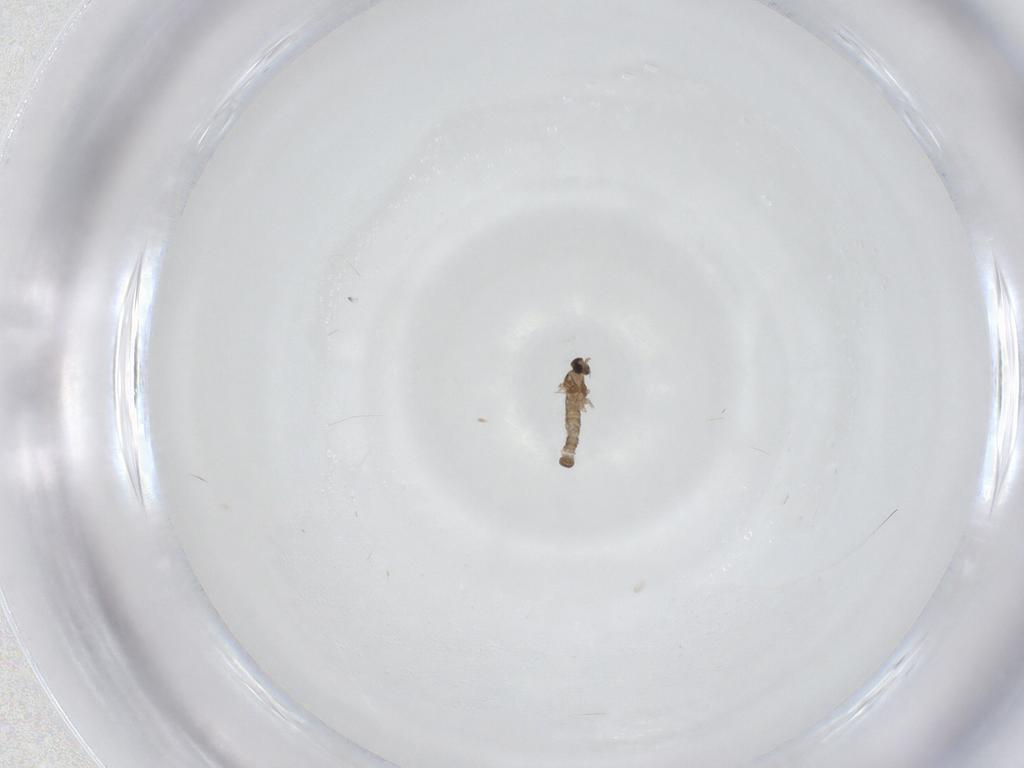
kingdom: Animalia
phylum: Arthropoda
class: Insecta
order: Diptera
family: Cecidomyiidae
